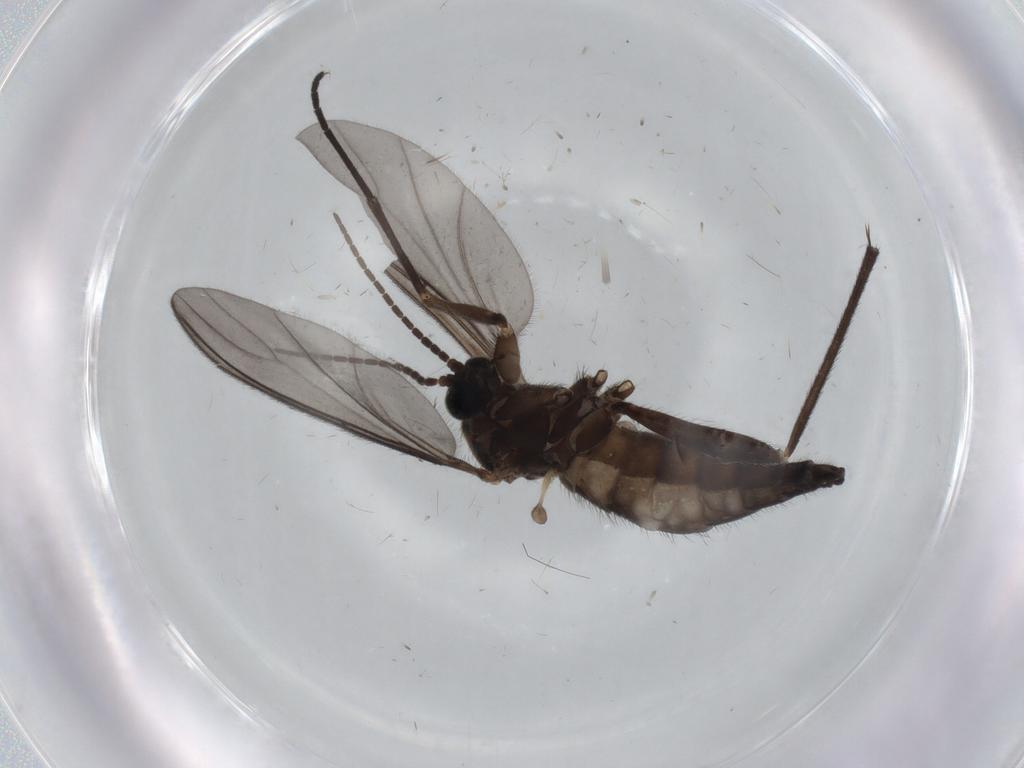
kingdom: Animalia
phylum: Arthropoda
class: Insecta
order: Diptera
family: Sciaridae
